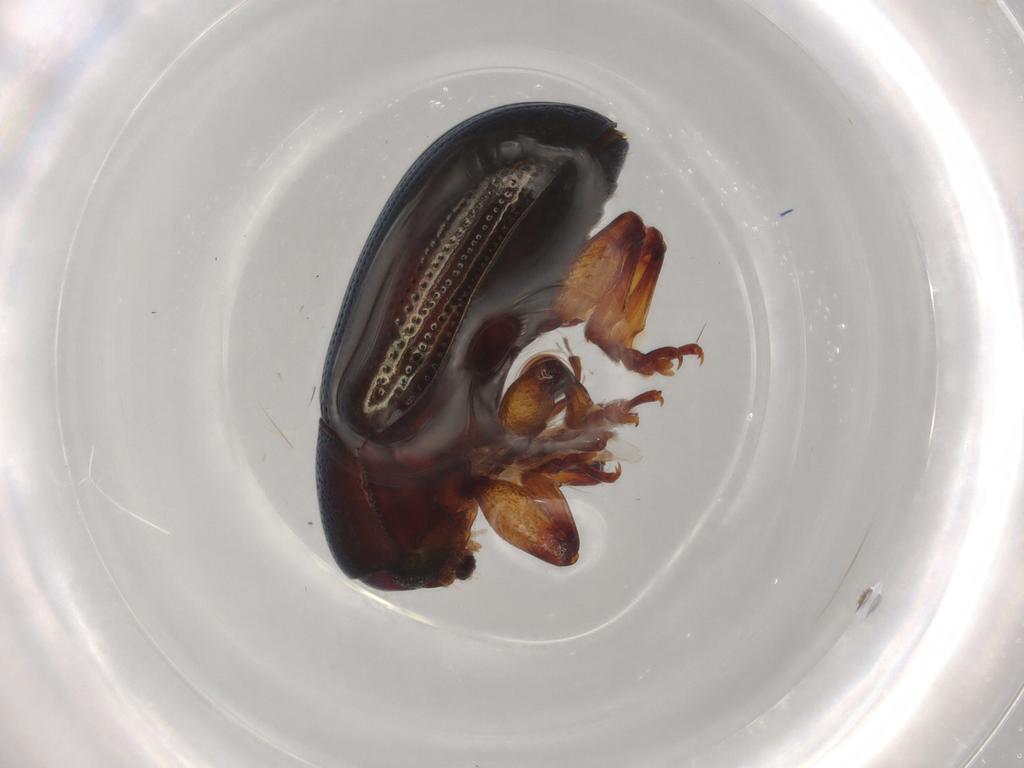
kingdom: Animalia
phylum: Arthropoda
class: Insecta
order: Coleoptera
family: Chrysomelidae
